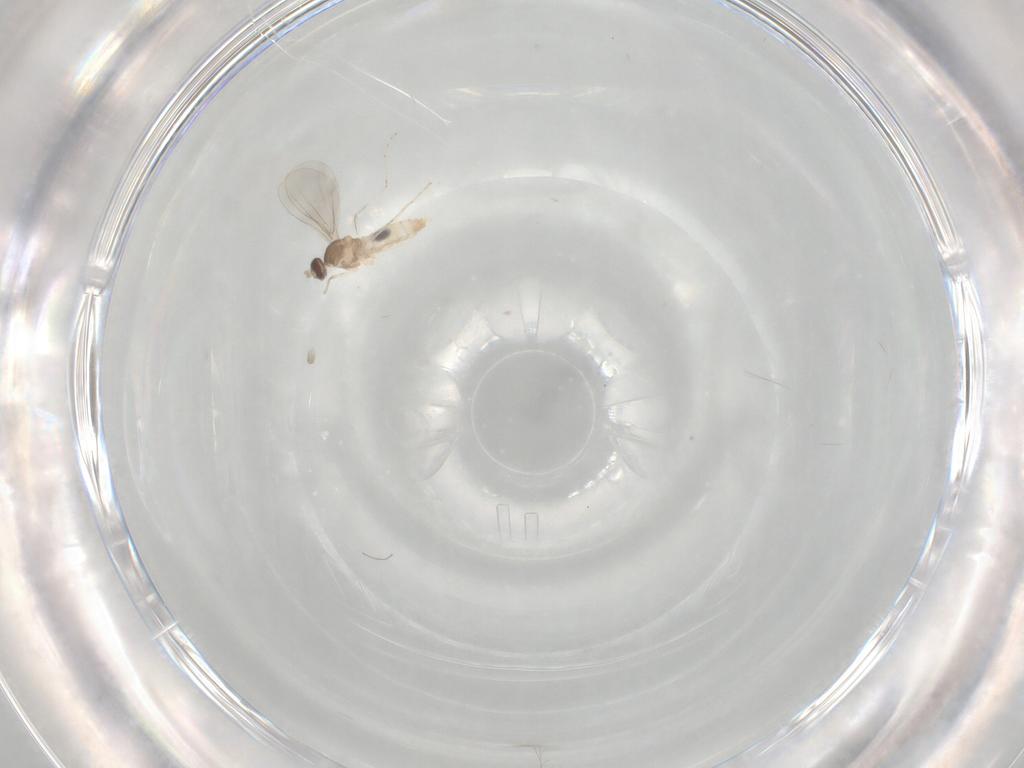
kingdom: Animalia
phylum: Arthropoda
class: Insecta
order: Diptera
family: Cecidomyiidae
